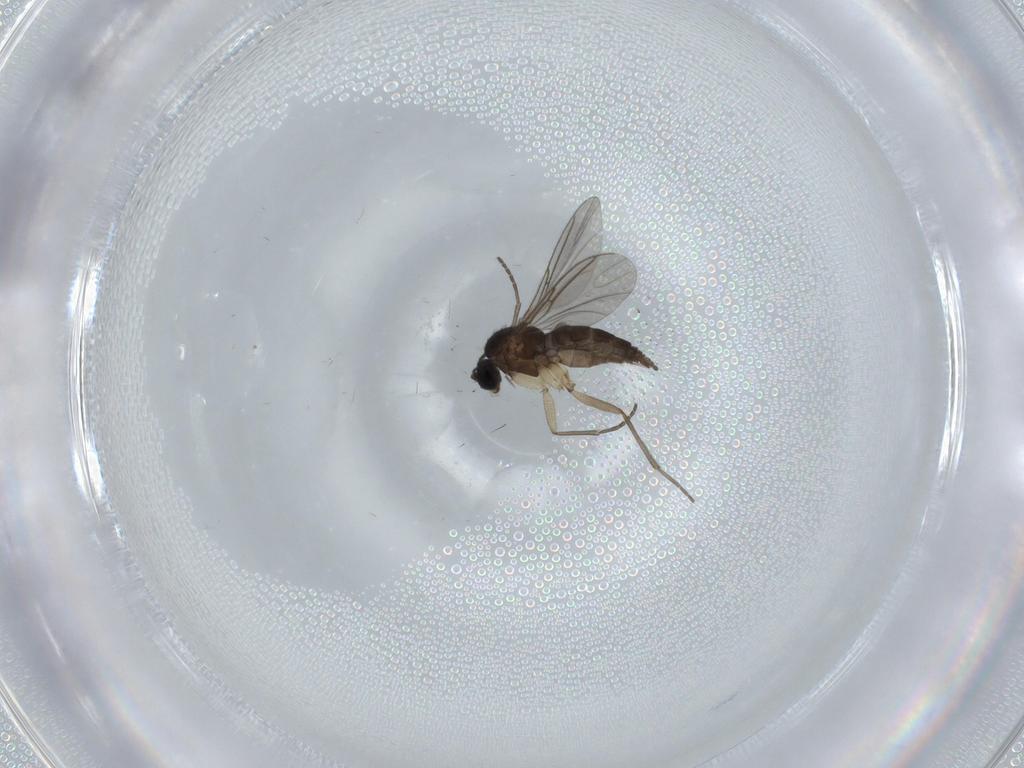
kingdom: Animalia
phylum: Arthropoda
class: Insecta
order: Diptera
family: Sciaridae
